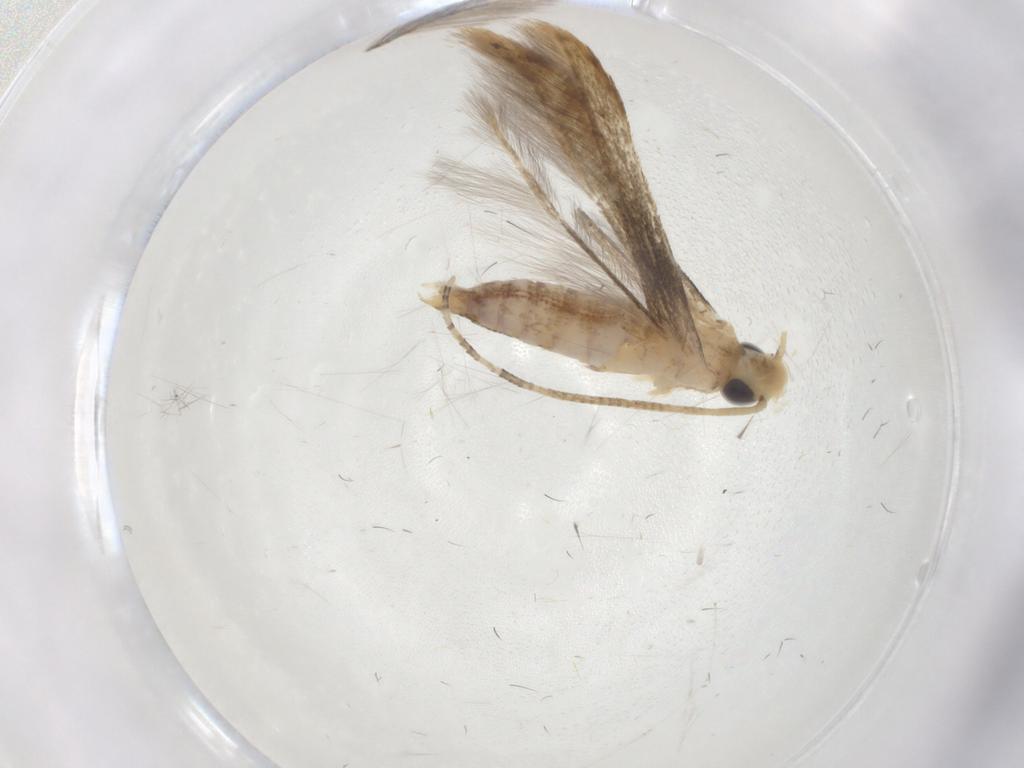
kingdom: Animalia
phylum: Arthropoda
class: Insecta
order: Lepidoptera
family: Batrachedridae
